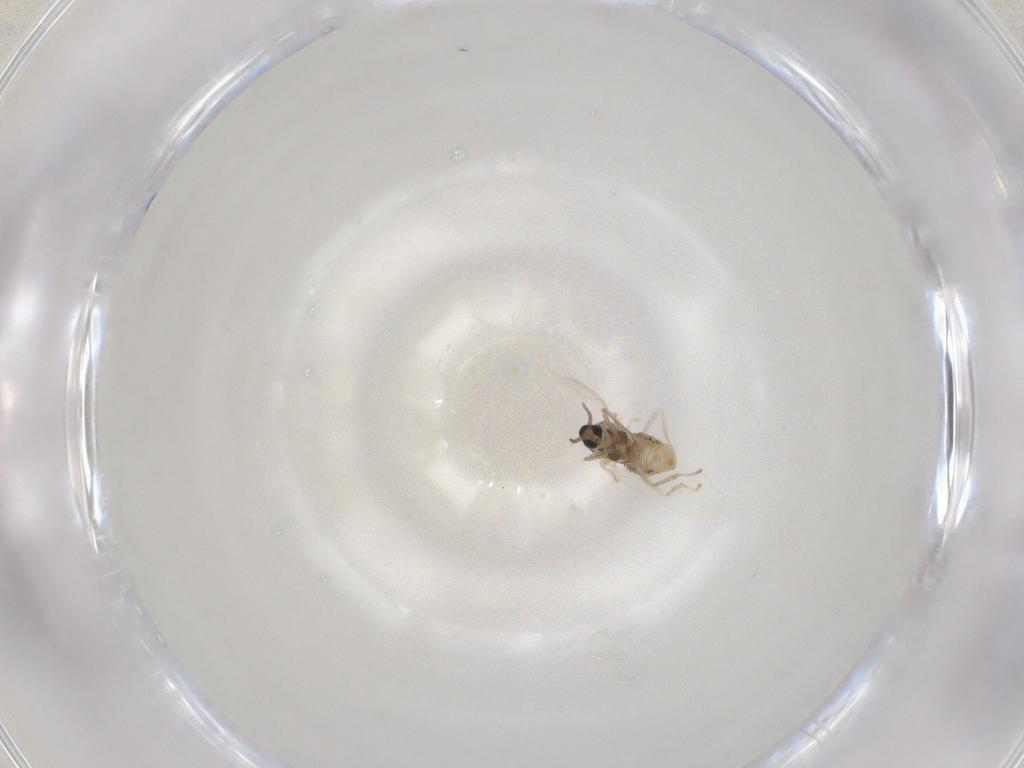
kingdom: Animalia
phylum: Arthropoda
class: Insecta
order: Diptera
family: Cecidomyiidae
